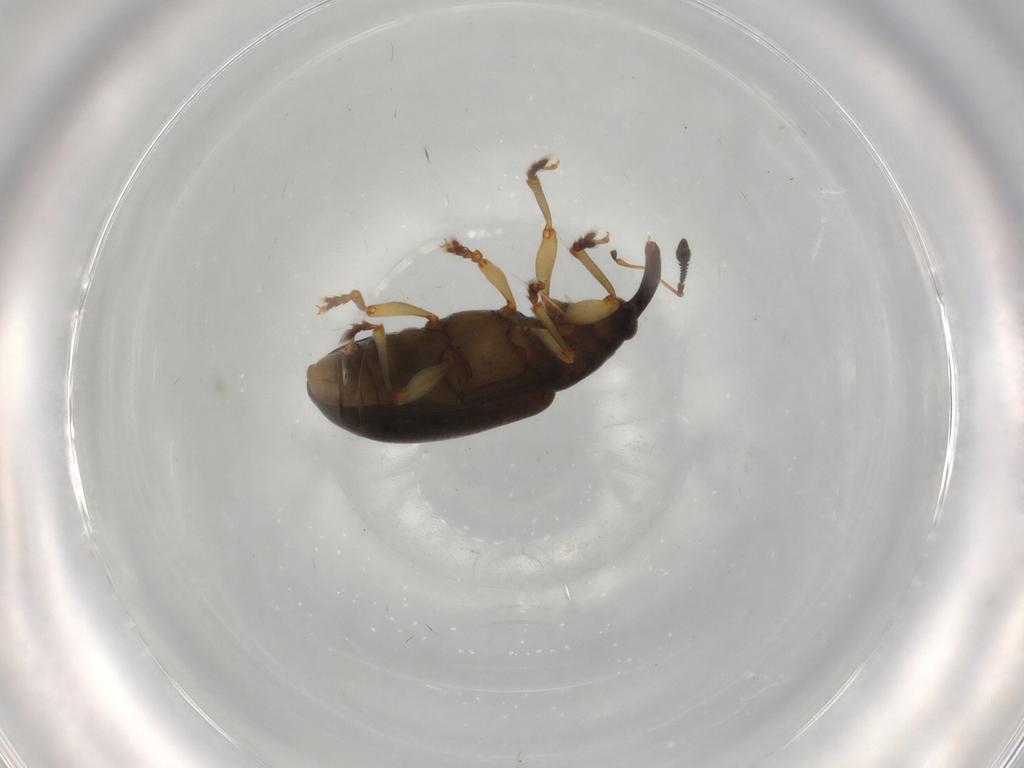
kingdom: Animalia
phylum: Arthropoda
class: Insecta
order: Coleoptera
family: Curculionidae
